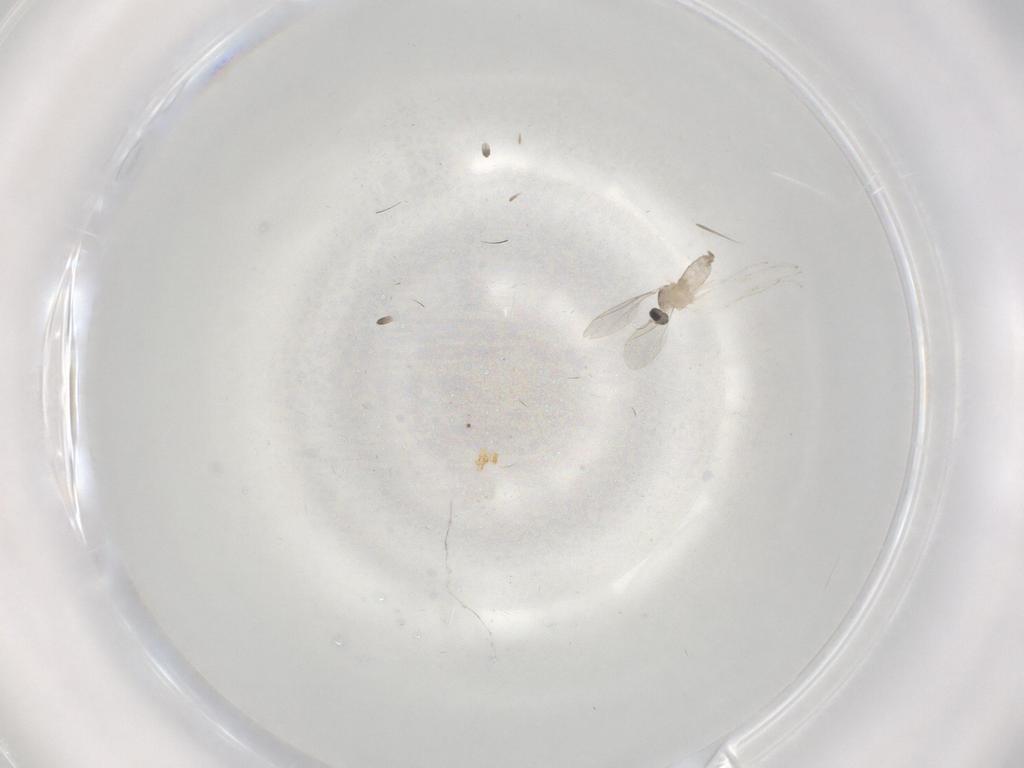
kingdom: Animalia
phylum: Arthropoda
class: Insecta
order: Diptera
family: Cecidomyiidae
